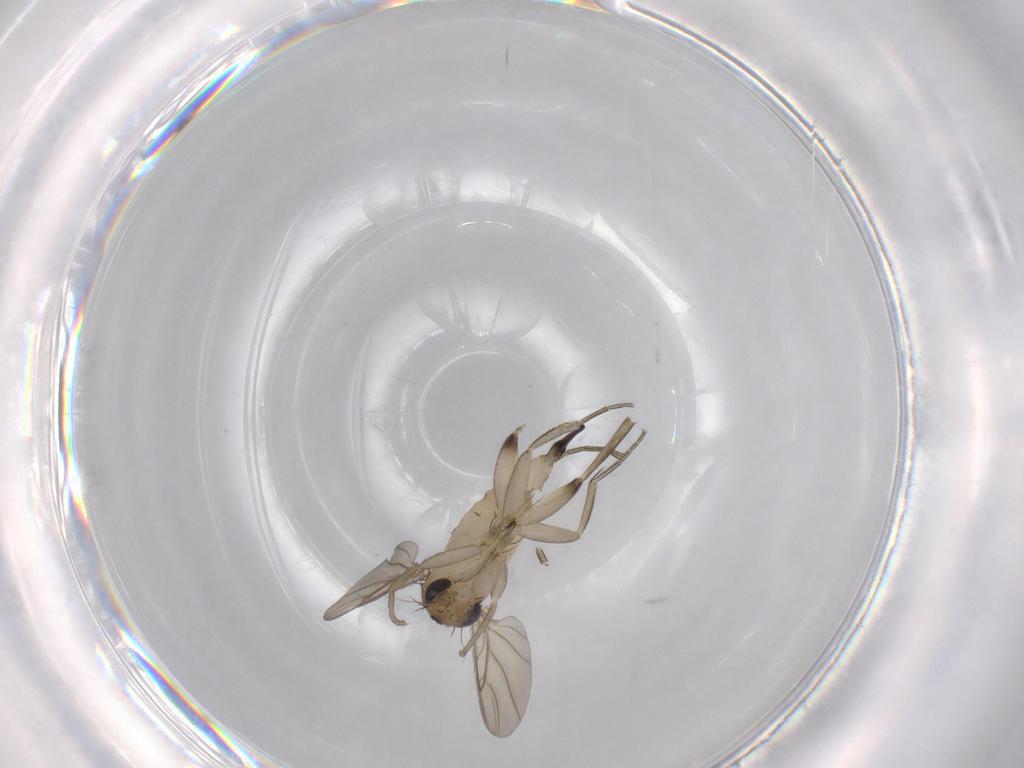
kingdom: Animalia
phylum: Arthropoda
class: Insecta
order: Diptera
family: Phoridae
